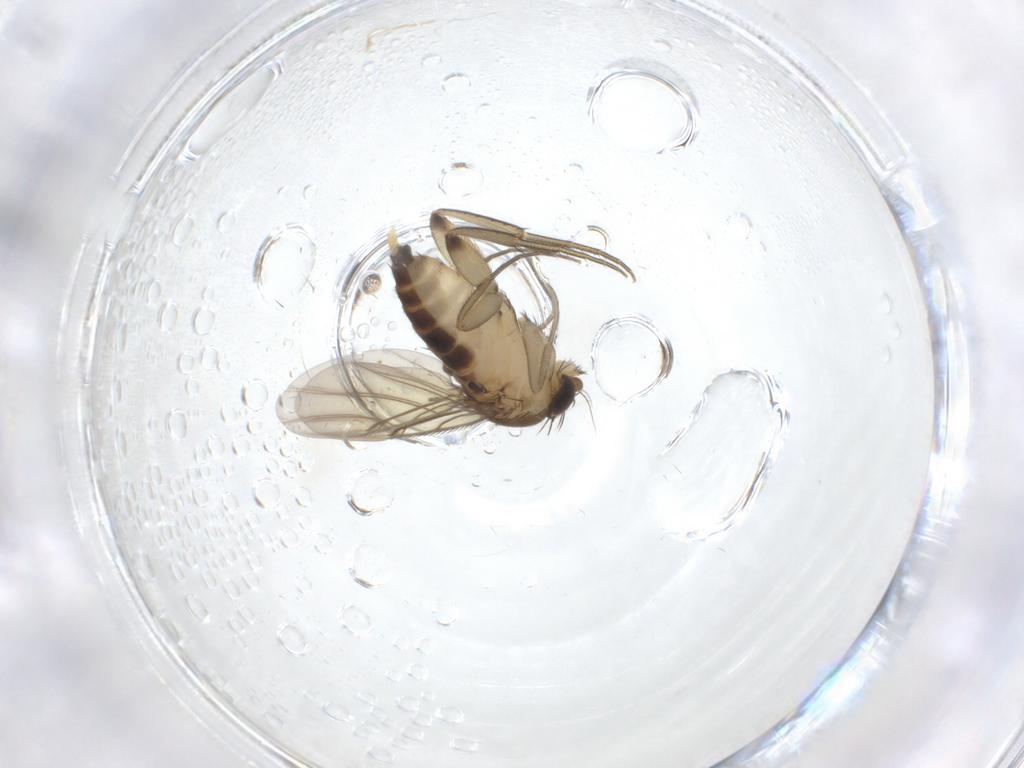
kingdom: Animalia
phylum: Arthropoda
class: Insecta
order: Diptera
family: Phoridae
